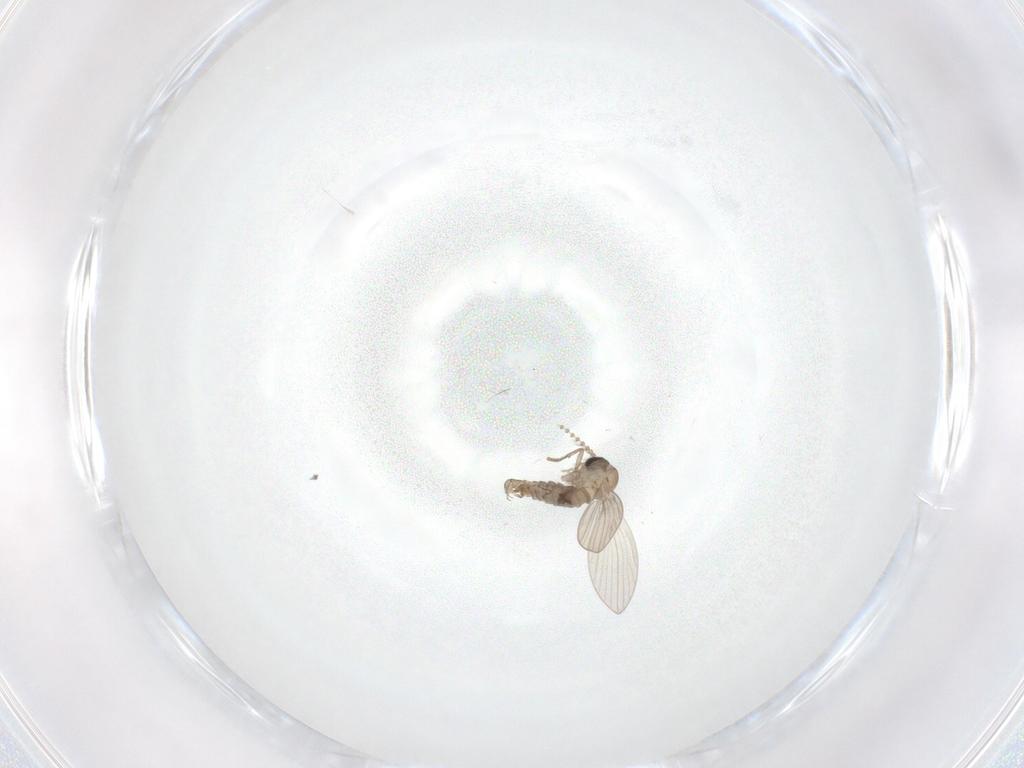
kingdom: Animalia
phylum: Arthropoda
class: Insecta
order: Diptera
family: Psychodidae
